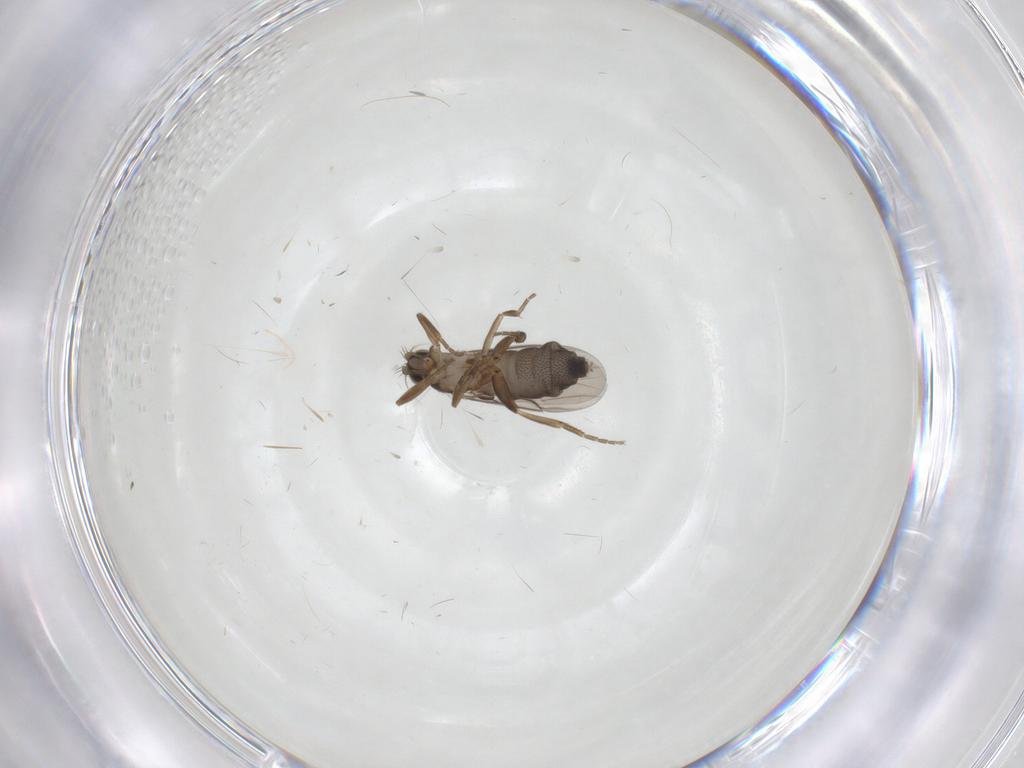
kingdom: Animalia
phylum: Arthropoda
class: Insecta
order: Diptera
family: Phoridae
